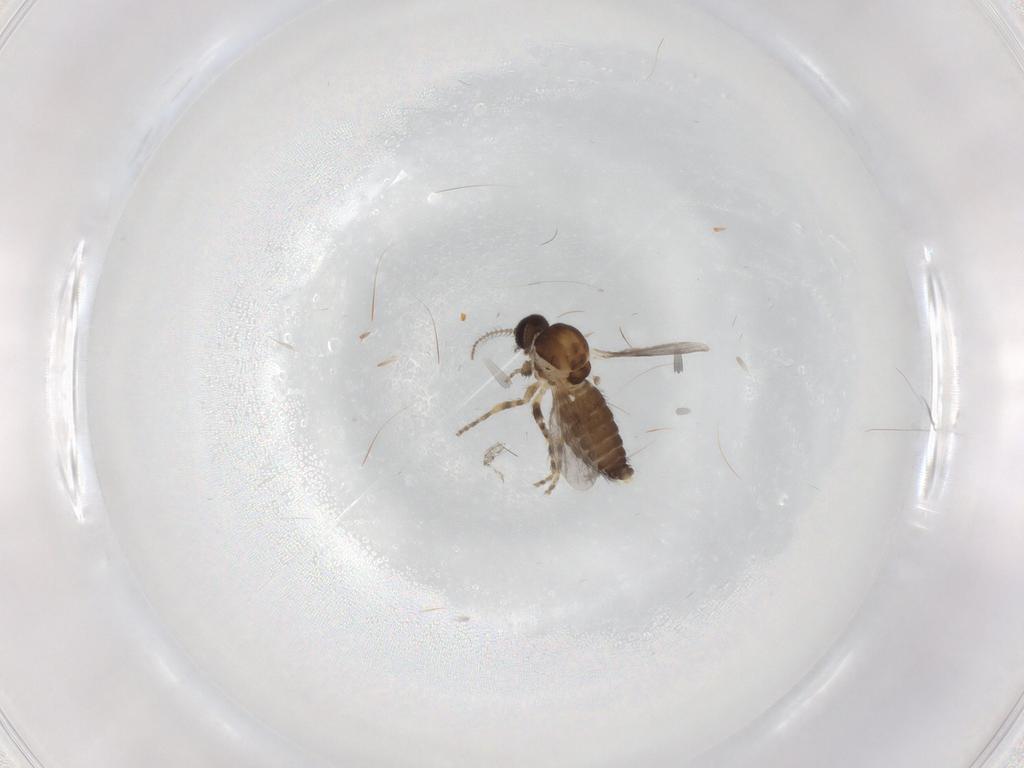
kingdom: Animalia
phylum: Arthropoda
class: Insecta
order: Diptera
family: Ceratopogonidae
